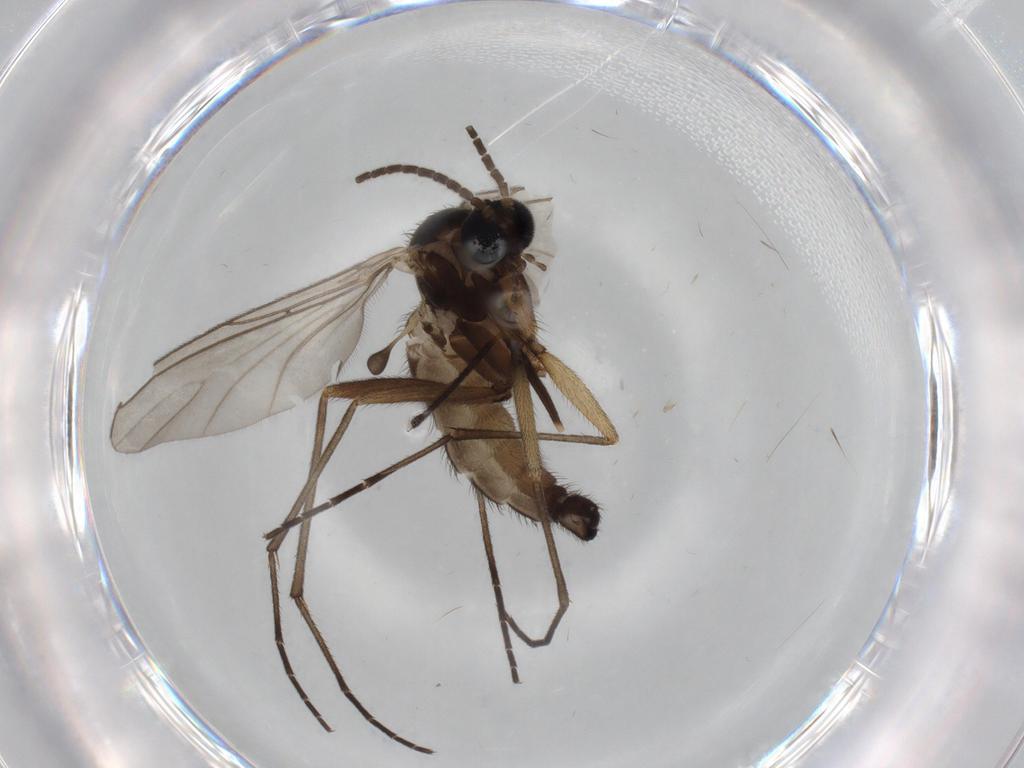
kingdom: Animalia
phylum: Arthropoda
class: Insecta
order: Diptera
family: Sciaridae
